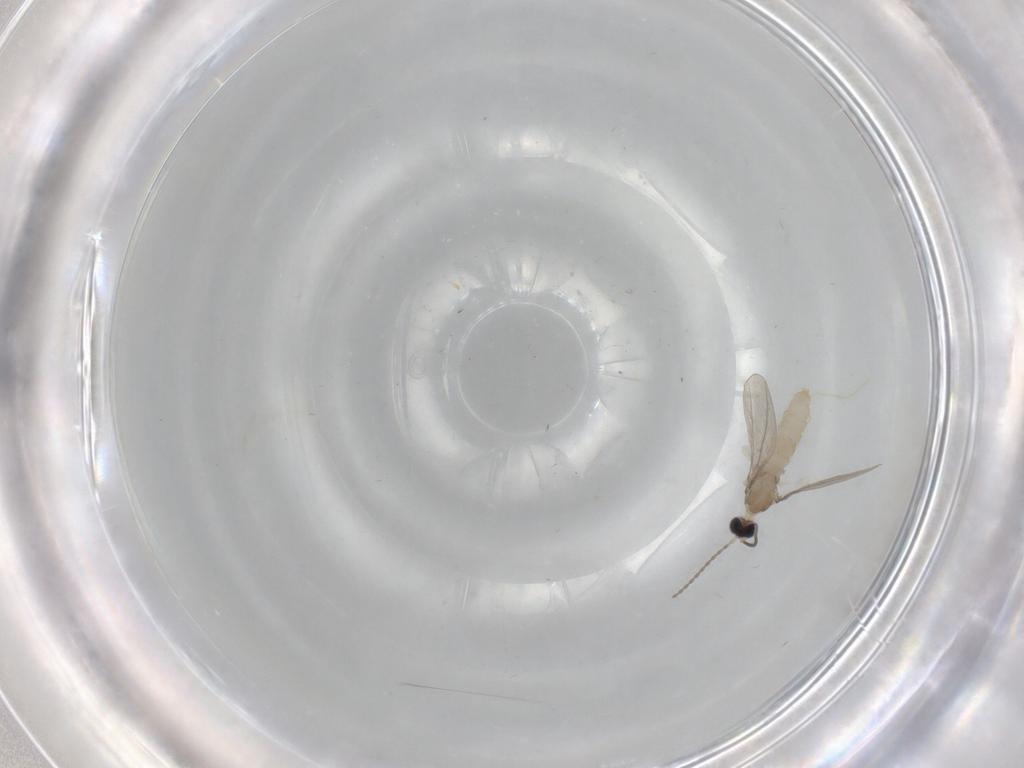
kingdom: Animalia
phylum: Arthropoda
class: Insecta
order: Diptera
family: Cecidomyiidae
